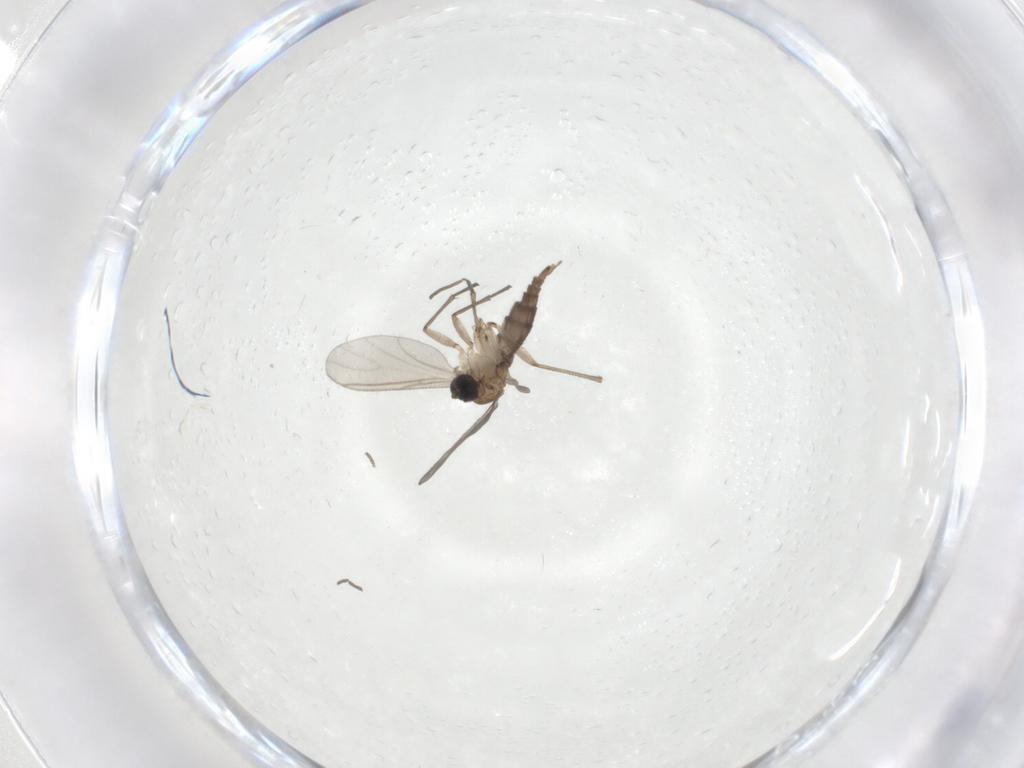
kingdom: Animalia
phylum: Arthropoda
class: Insecta
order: Diptera
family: Sciaridae
